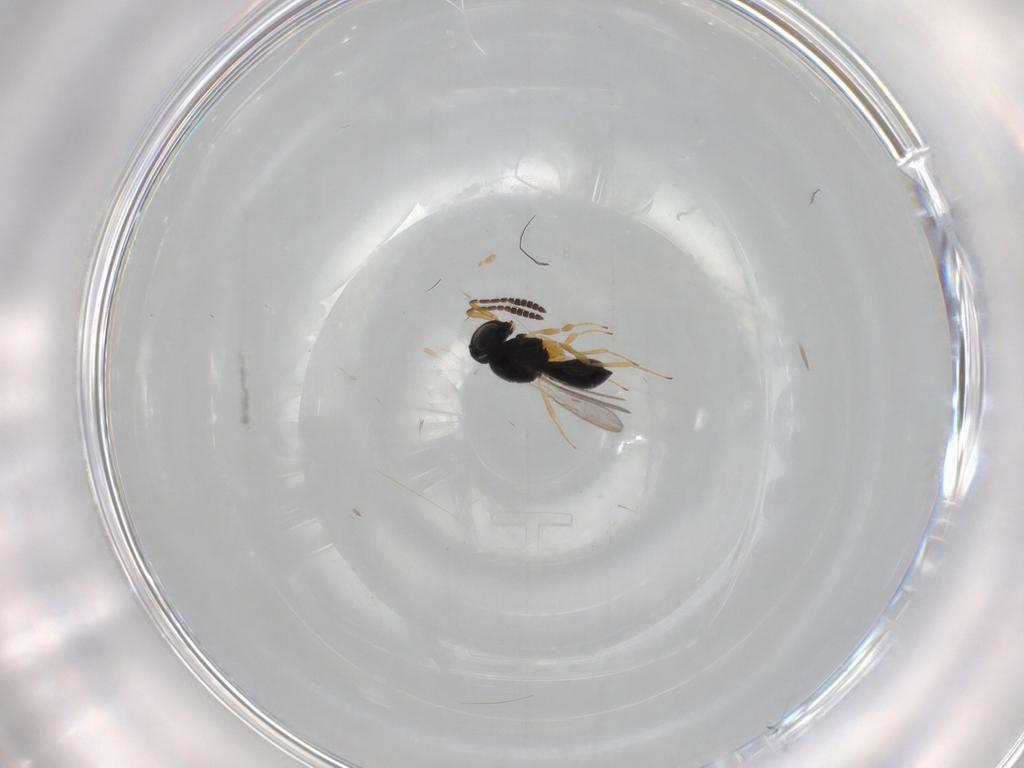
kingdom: Animalia
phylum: Arthropoda
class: Insecta
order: Hymenoptera
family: Scelionidae
